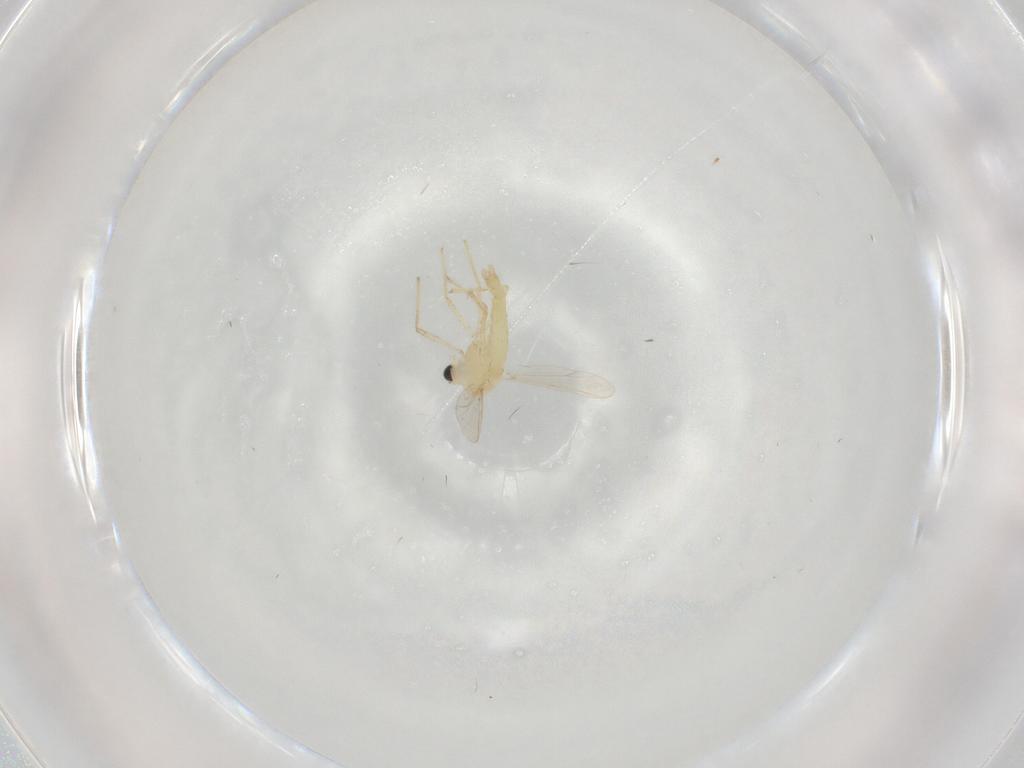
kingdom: Animalia
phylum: Arthropoda
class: Insecta
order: Diptera
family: Chironomidae
